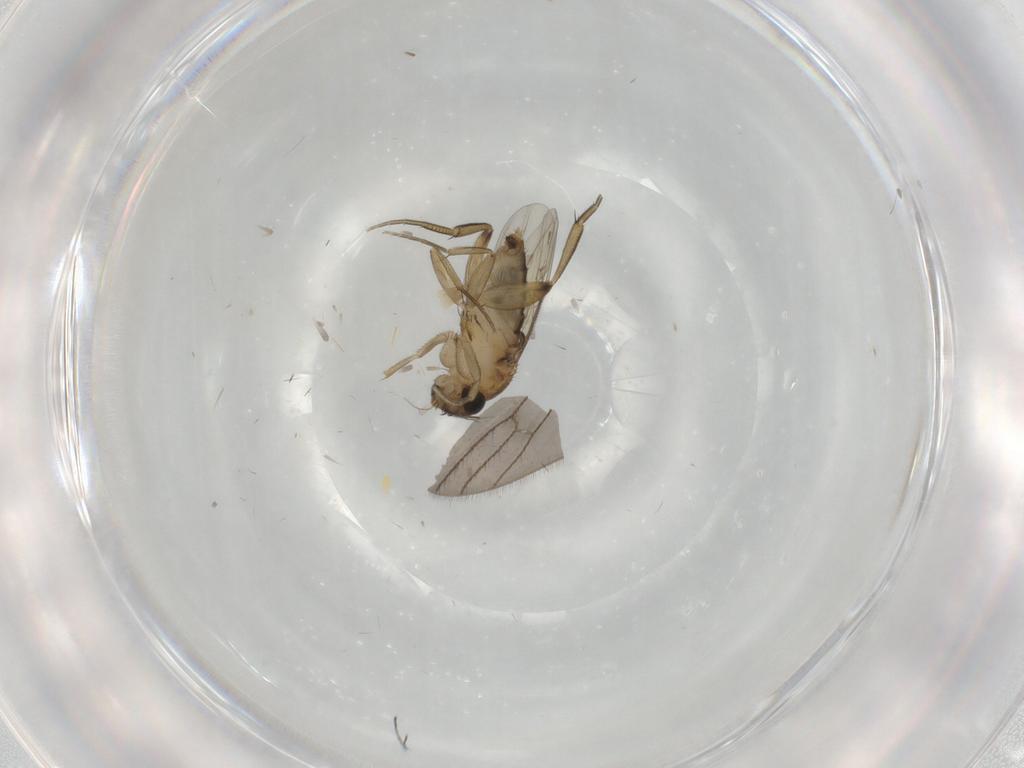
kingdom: Animalia
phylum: Arthropoda
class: Insecta
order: Diptera
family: Phoridae
